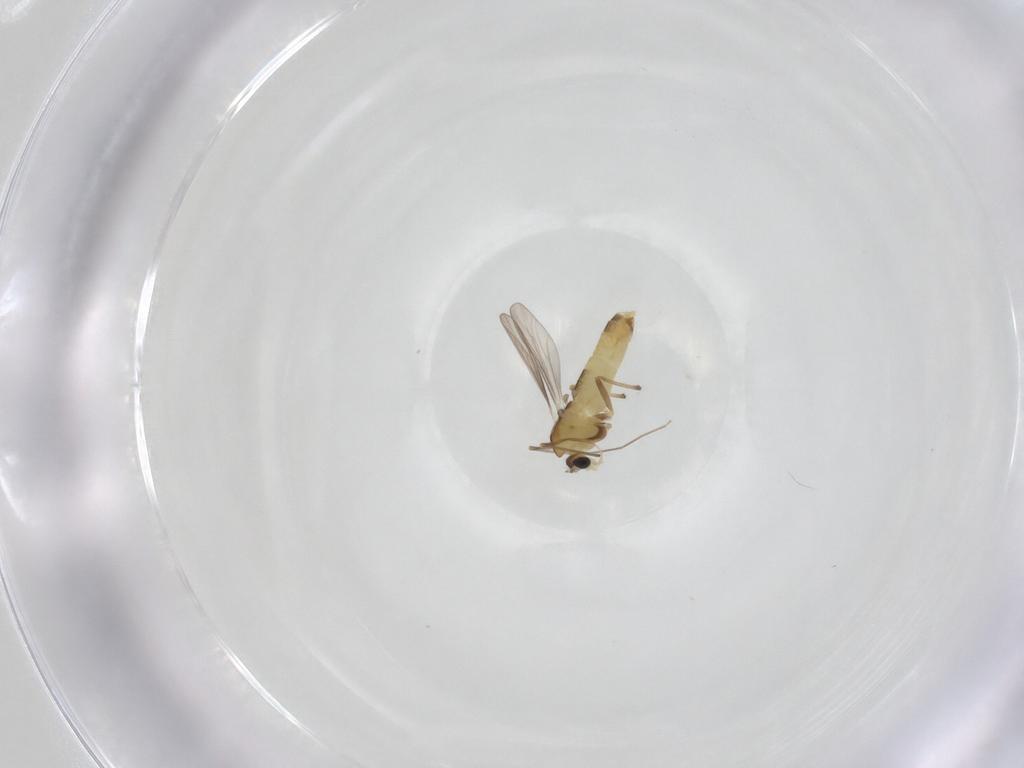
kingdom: Animalia
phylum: Arthropoda
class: Insecta
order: Diptera
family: Chironomidae
